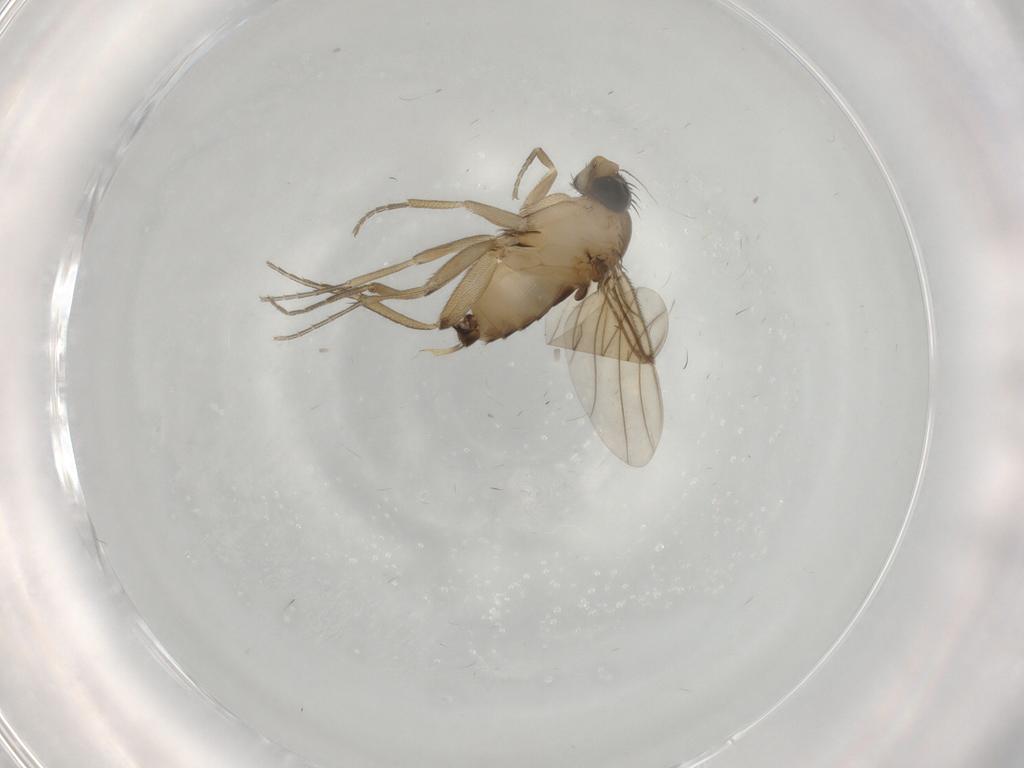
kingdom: Animalia
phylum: Arthropoda
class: Insecta
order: Diptera
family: Phoridae
